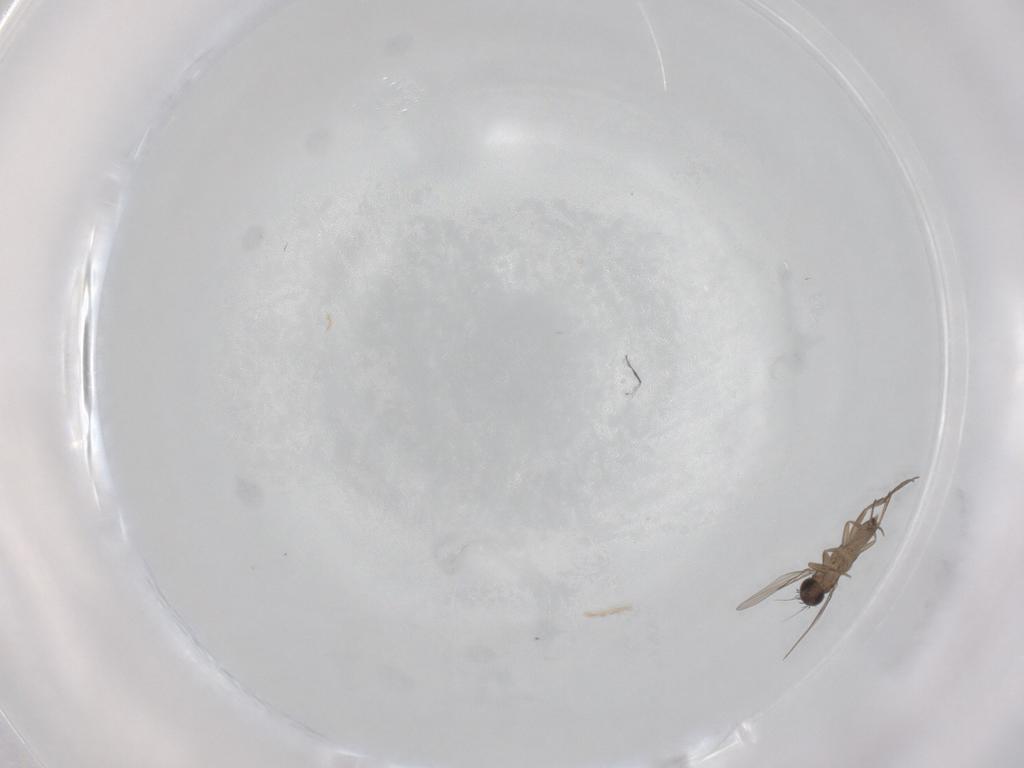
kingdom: Animalia
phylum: Arthropoda
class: Insecta
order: Diptera
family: Phoridae
